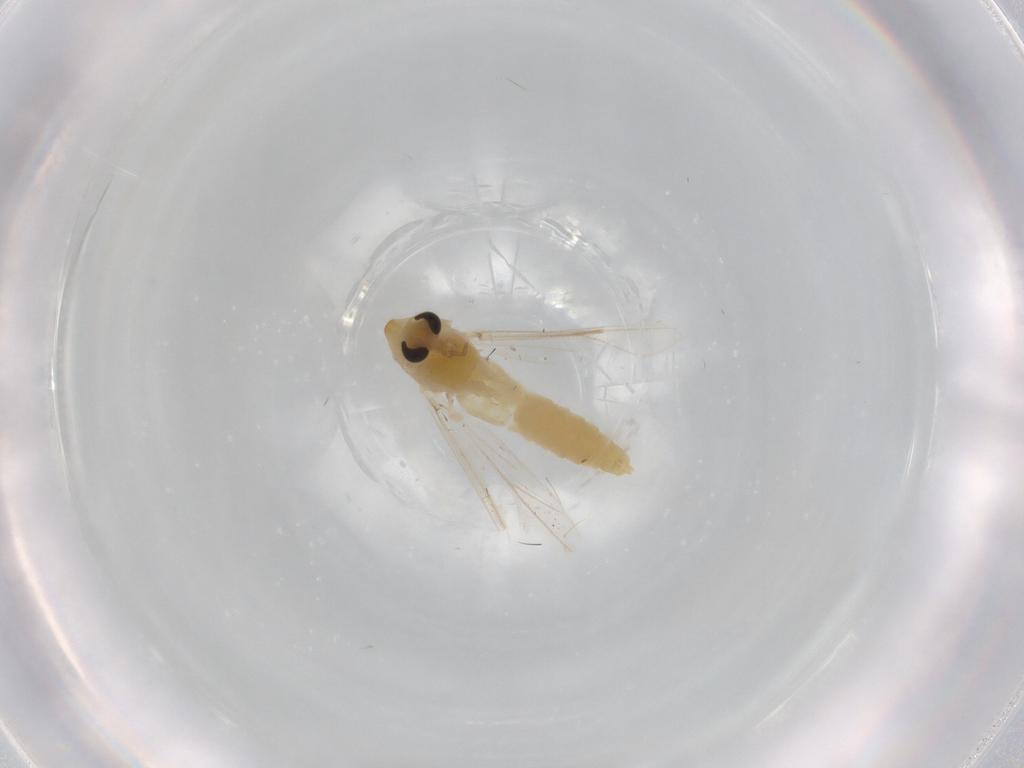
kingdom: Animalia
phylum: Arthropoda
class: Insecta
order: Diptera
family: Chironomidae
